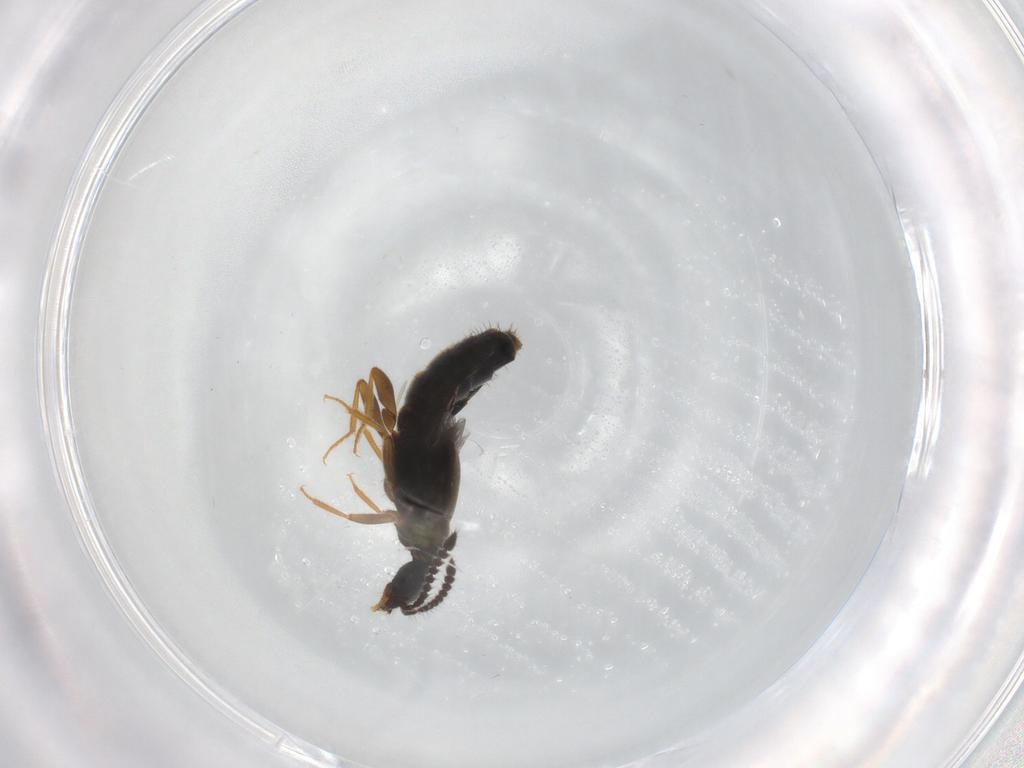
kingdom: Animalia
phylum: Arthropoda
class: Insecta
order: Coleoptera
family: Staphylinidae
